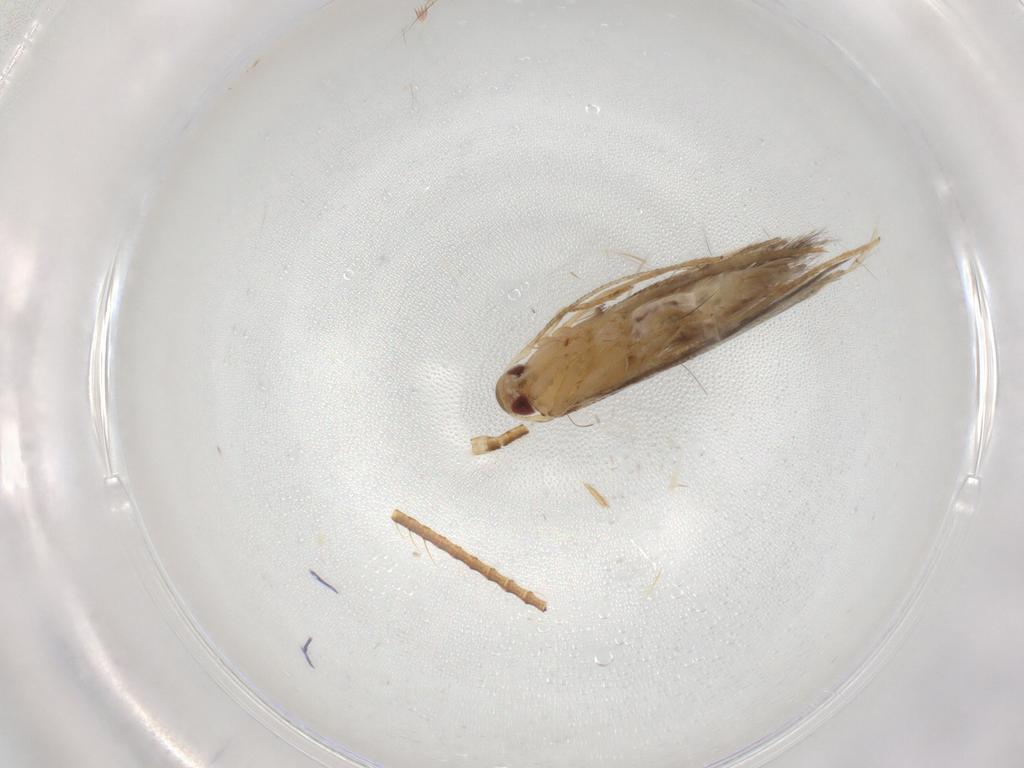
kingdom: Animalia
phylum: Arthropoda
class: Insecta
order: Lepidoptera
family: Cosmopterigidae
